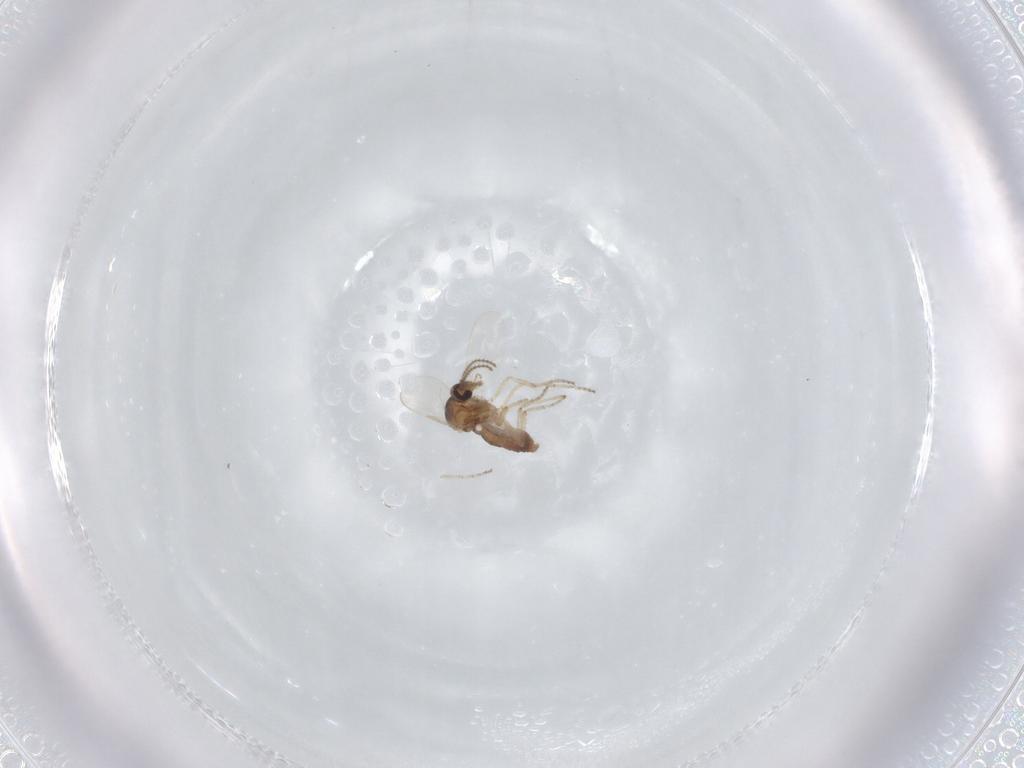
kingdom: Animalia
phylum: Arthropoda
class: Insecta
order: Diptera
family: Ceratopogonidae
